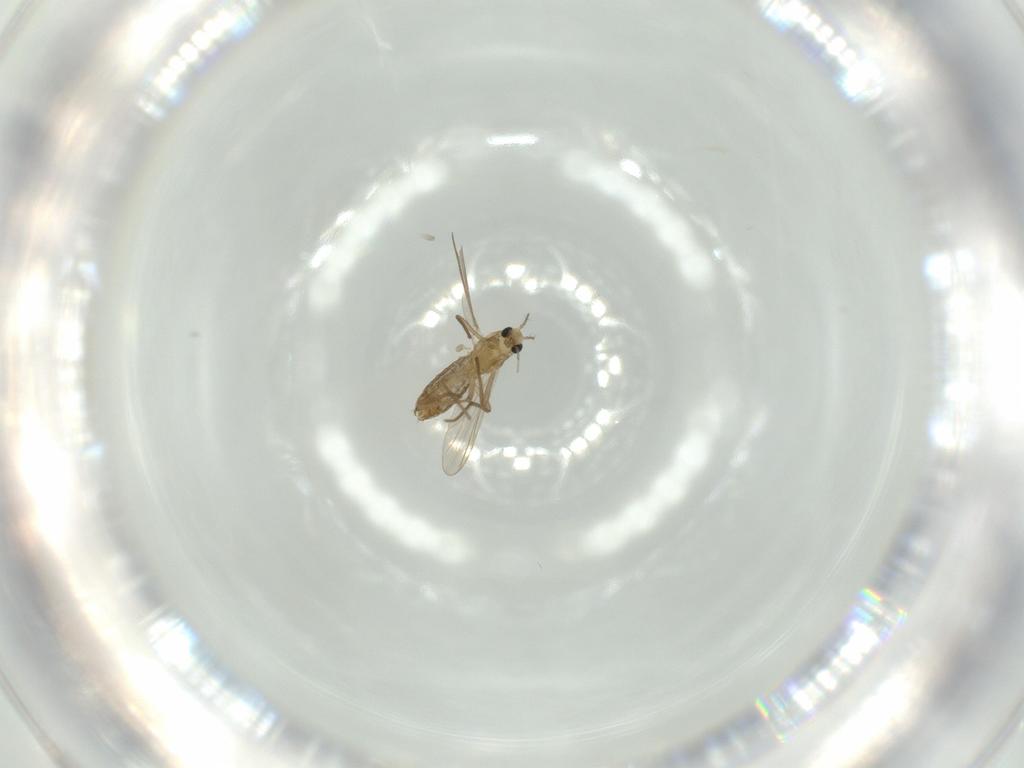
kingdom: Animalia
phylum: Arthropoda
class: Insecta
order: Diptera
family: Chironomidae
